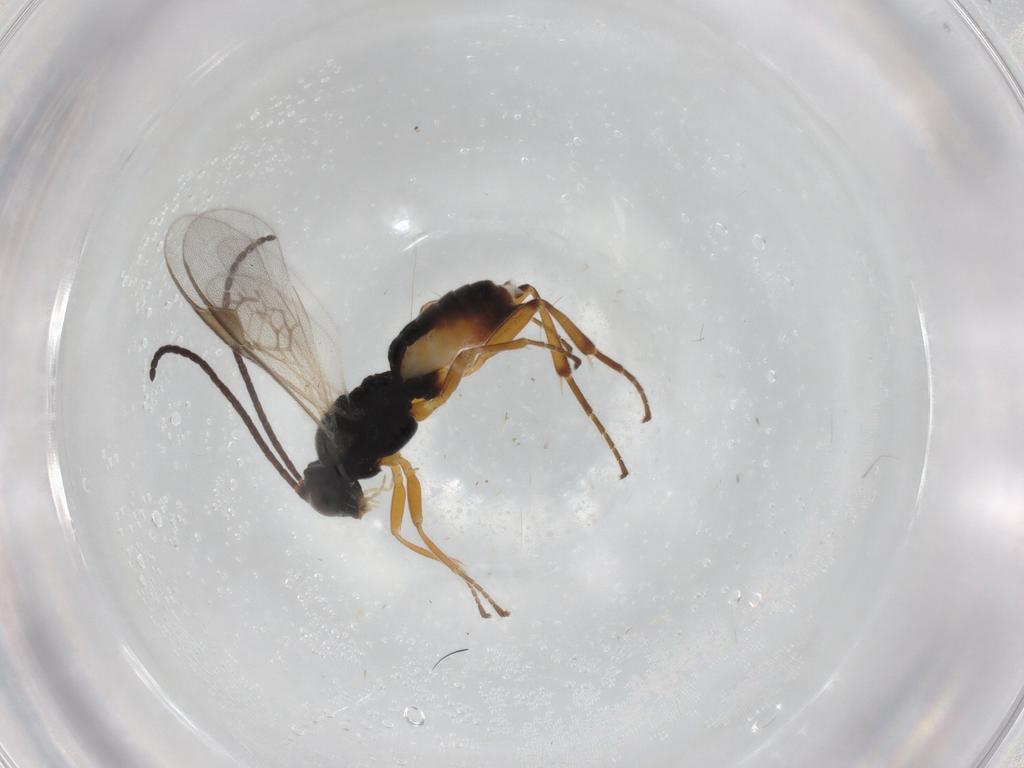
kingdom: Animalia
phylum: Arthropoda
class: Insecta
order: Hymenoptera
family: Braconidae
